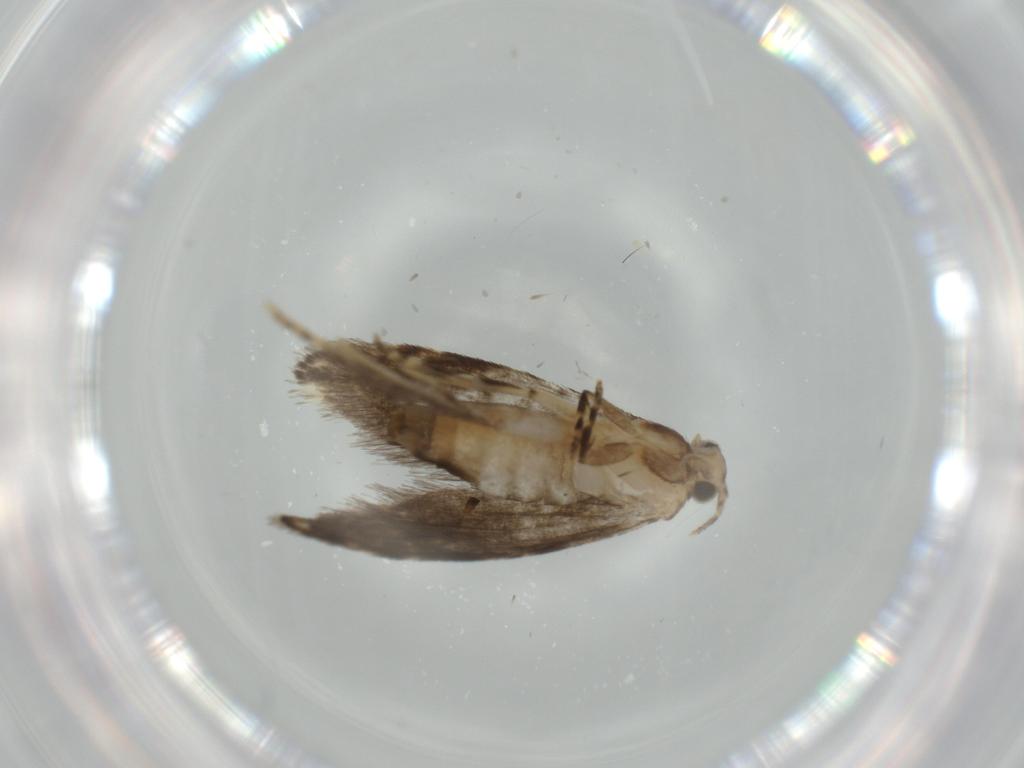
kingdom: Animalia
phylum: Arthropoda
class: Insecta
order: Lepidoptera
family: Tineidae
